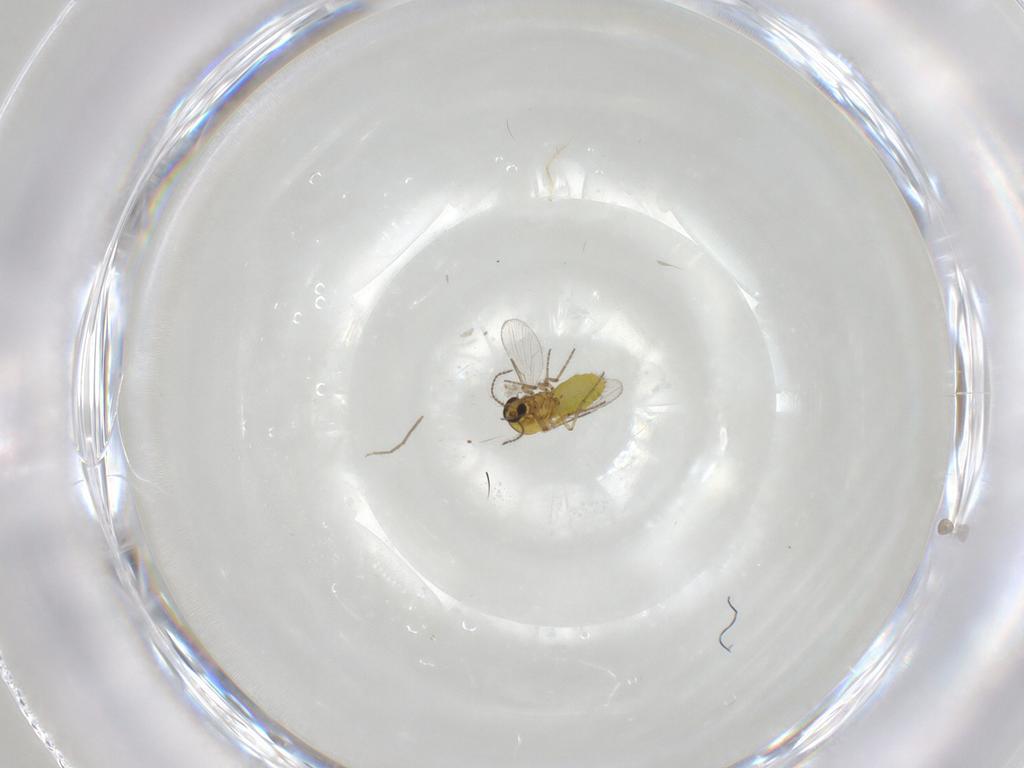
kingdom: Animalia
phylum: Arthropoda
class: Insecta
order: Diptera
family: Ceratopogonidae
